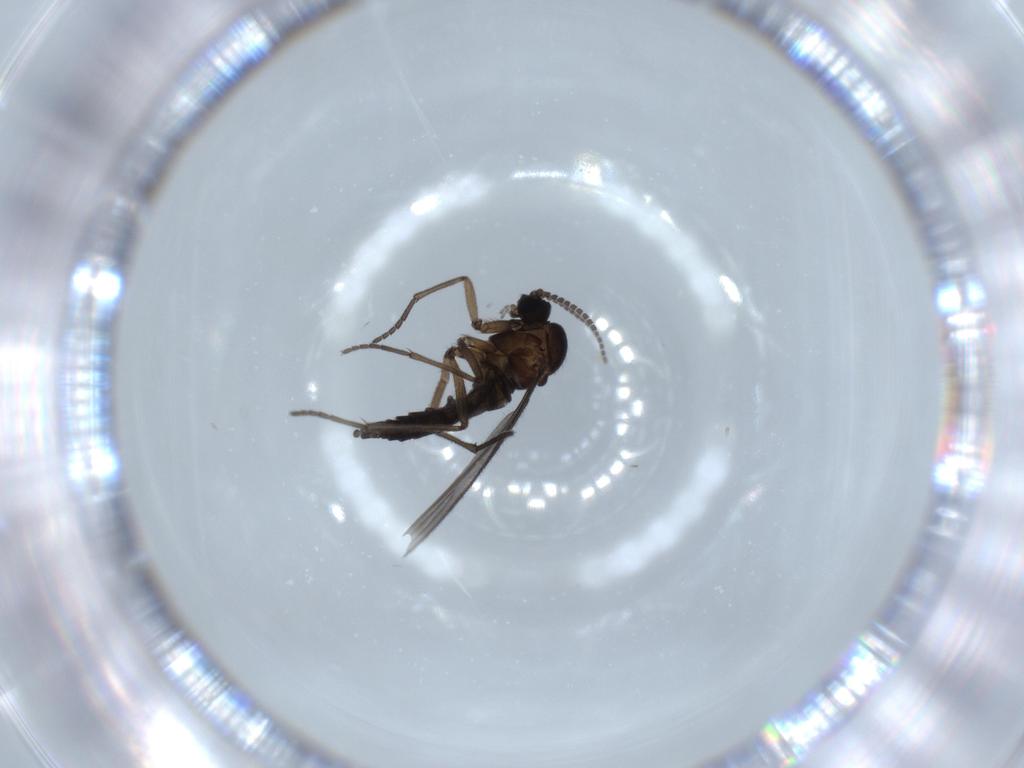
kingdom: Animalia
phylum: Arthropoda
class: Insecta
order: Diptera
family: Sciaridae
